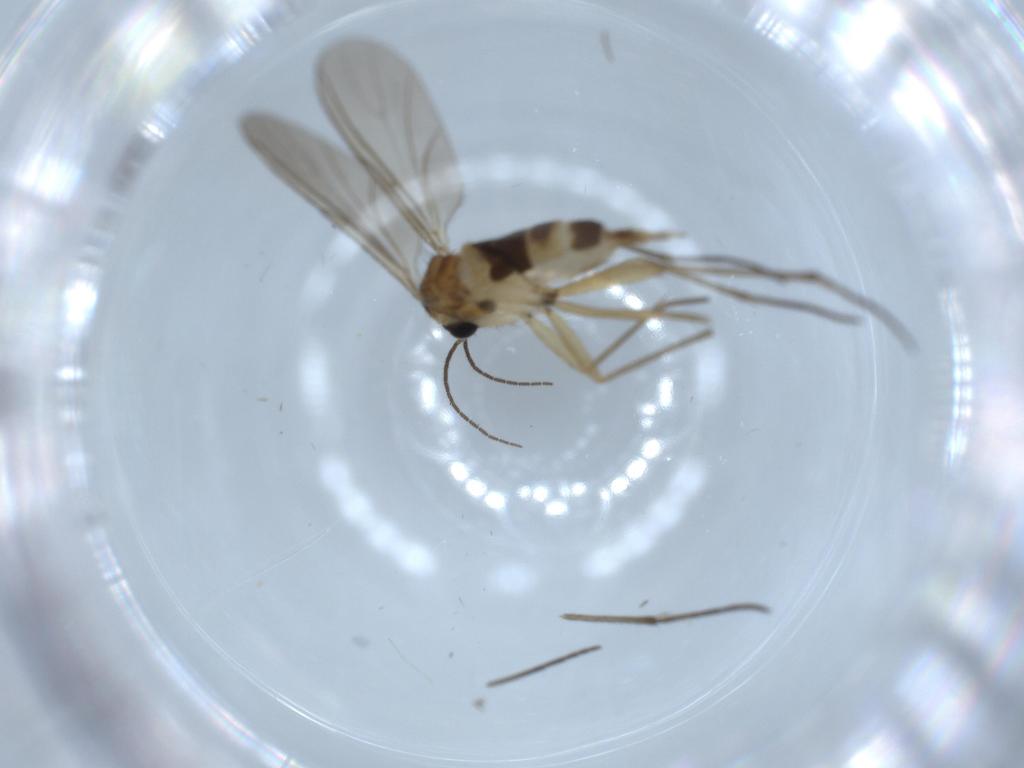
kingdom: Animalia
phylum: Arthropoda
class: Insecta
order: Diptera
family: Cecidomyiidae
